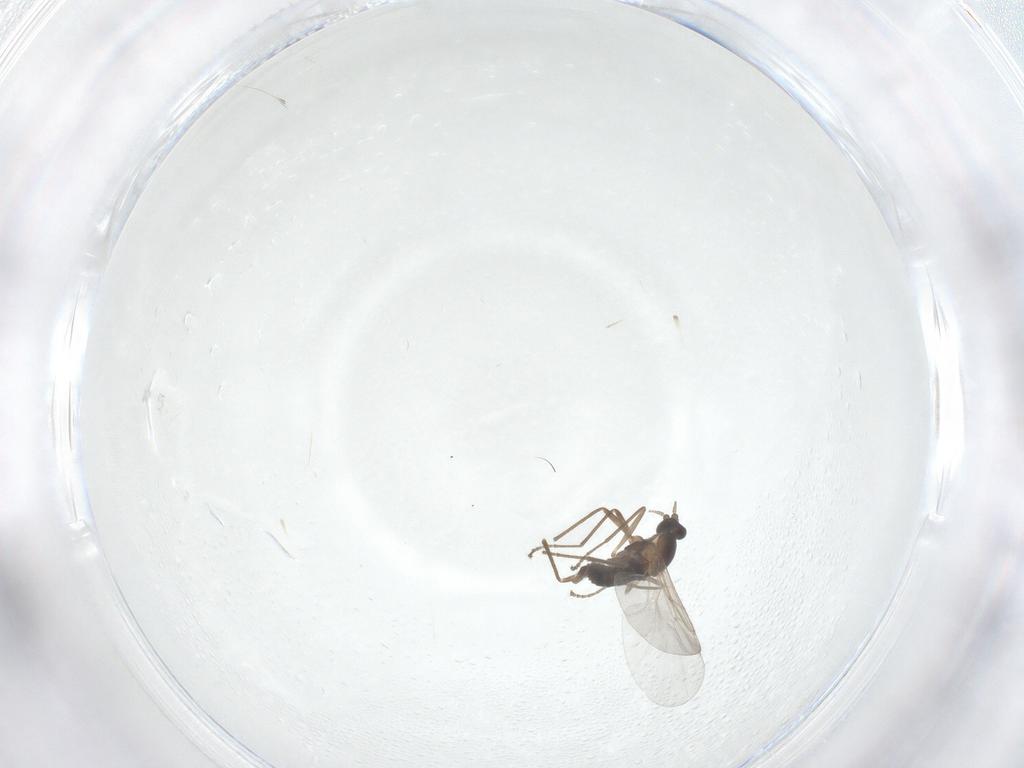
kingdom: Animalia
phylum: Arthropoda
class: Insecta
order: Diptera
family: Cecidomyiidae
